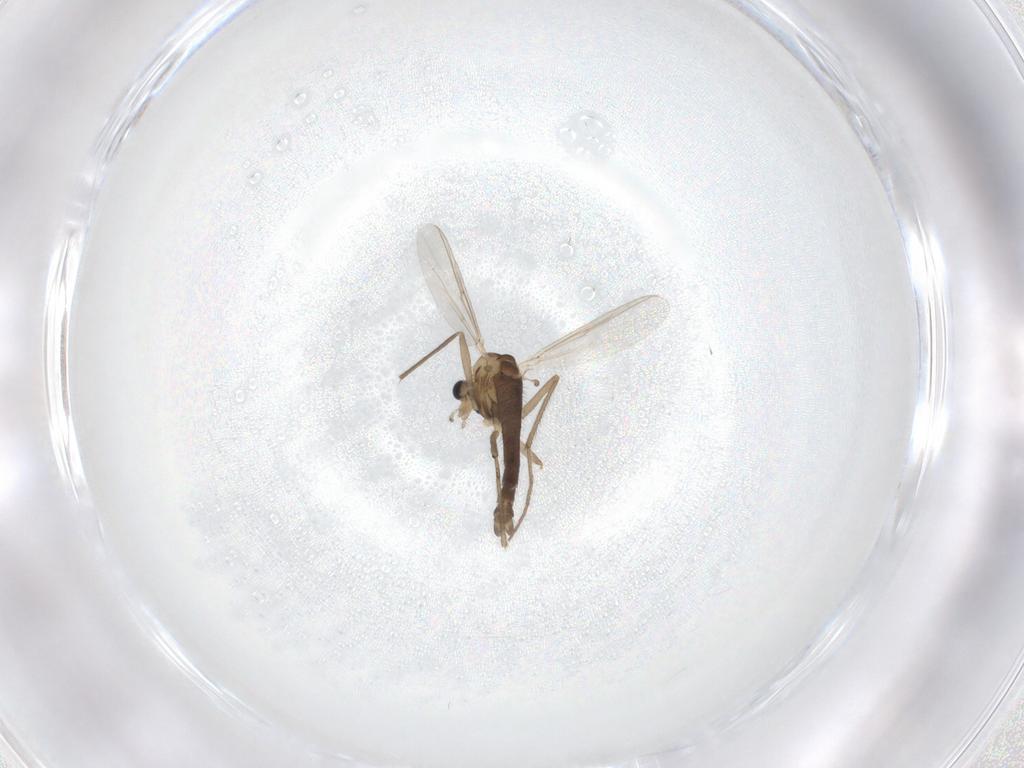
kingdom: Animalia
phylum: Arthropoda
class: Insecta
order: Diptera
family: Chironomidae
